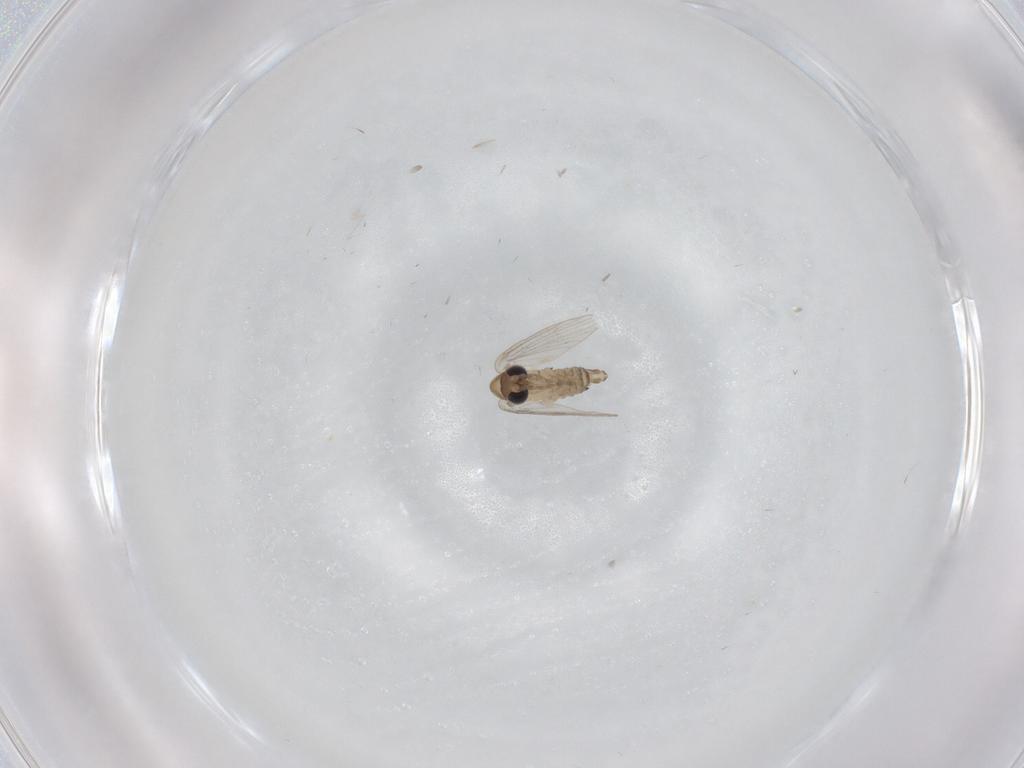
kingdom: Animalia
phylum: Arthropoda
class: Insecta
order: Diptera
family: Psychodidae
